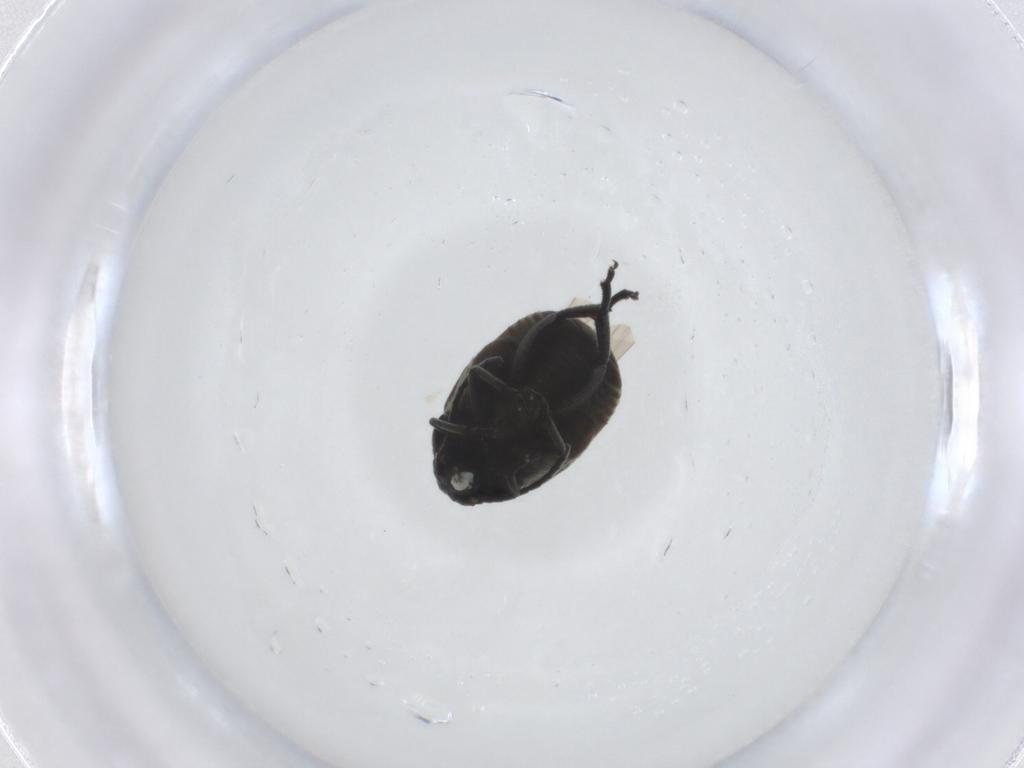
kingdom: Animalia
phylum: Arthropoda
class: Insecta
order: Coleoptera
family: Chrysomelidae
